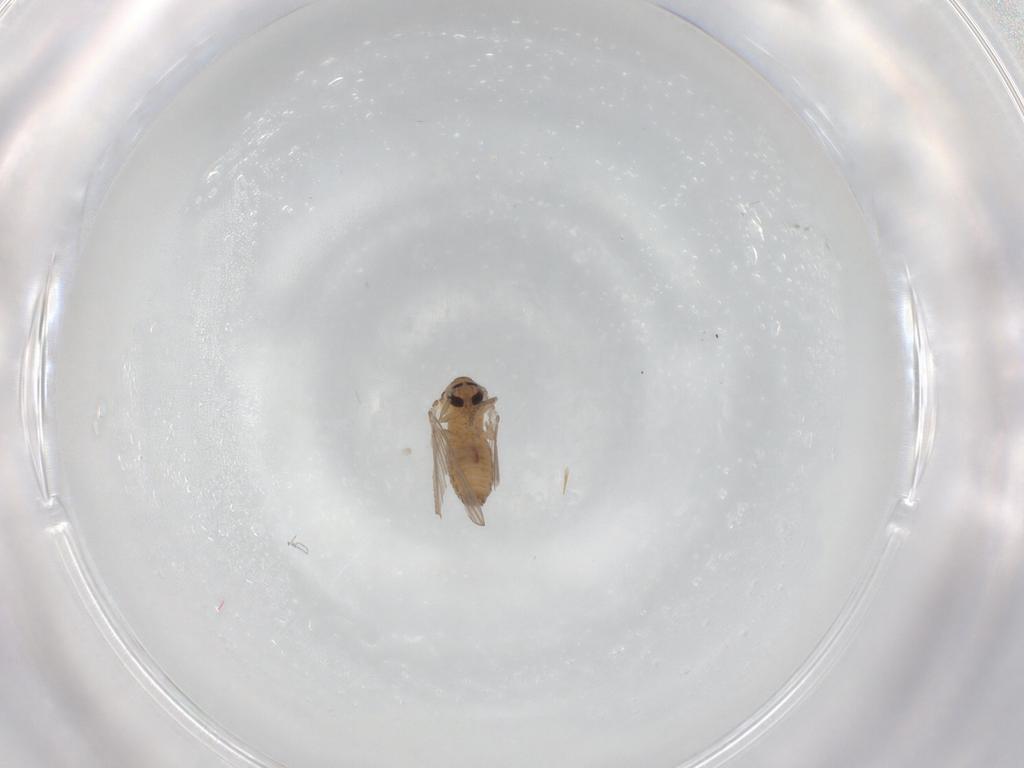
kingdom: Animalia
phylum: Arthropoda
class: Insecta
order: Diptera
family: Psychodidae
